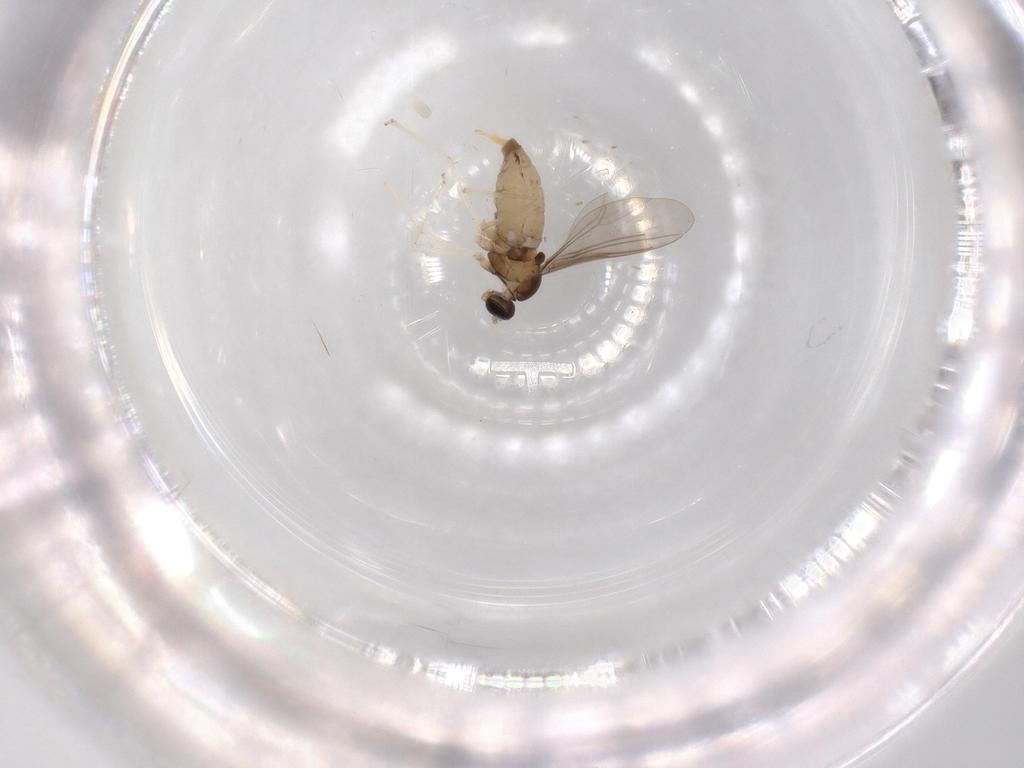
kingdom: Animalia
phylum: Arthropoda
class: Insecta
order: Diptera
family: Cecidomyiidae
